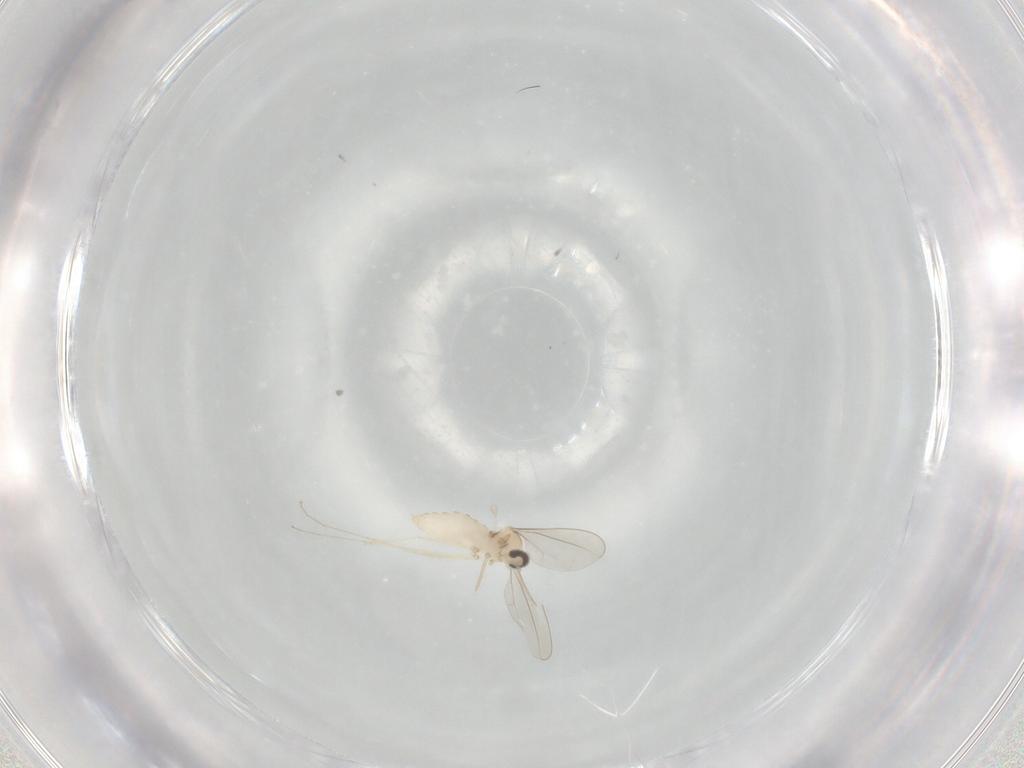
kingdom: Animalia
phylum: Arthropoda
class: Insecta
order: Diptera
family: Cecidomyiidae
